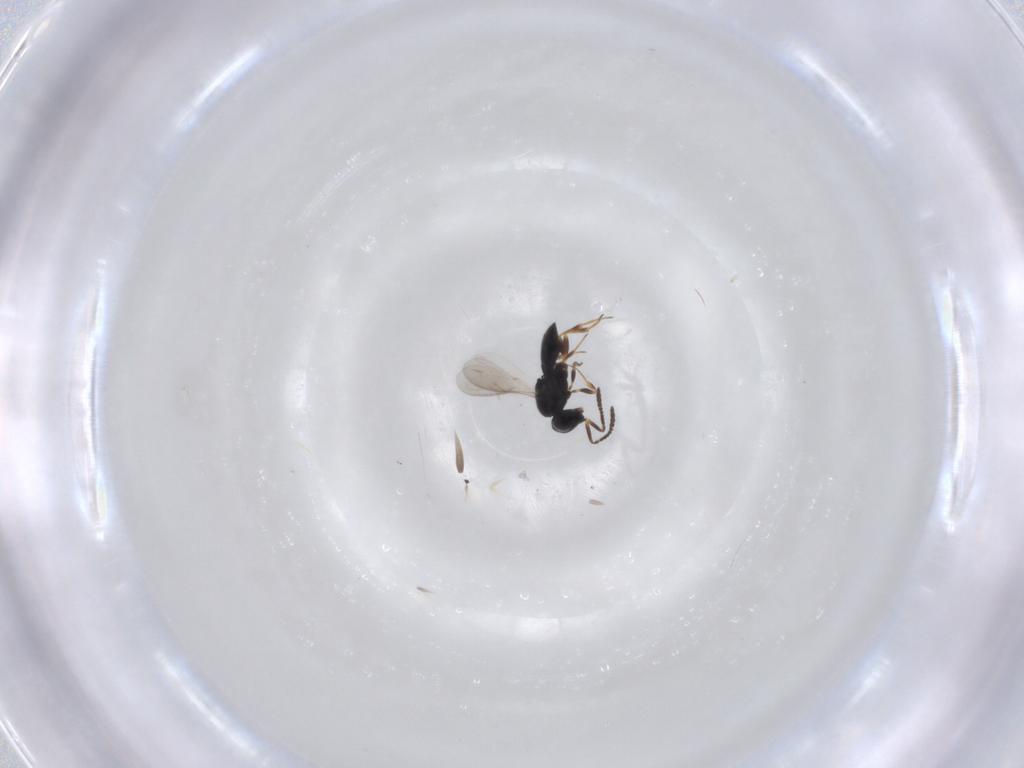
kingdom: Animalia
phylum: Arthropoda
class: Insecta
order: Hymenoptera
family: Scelionidae
